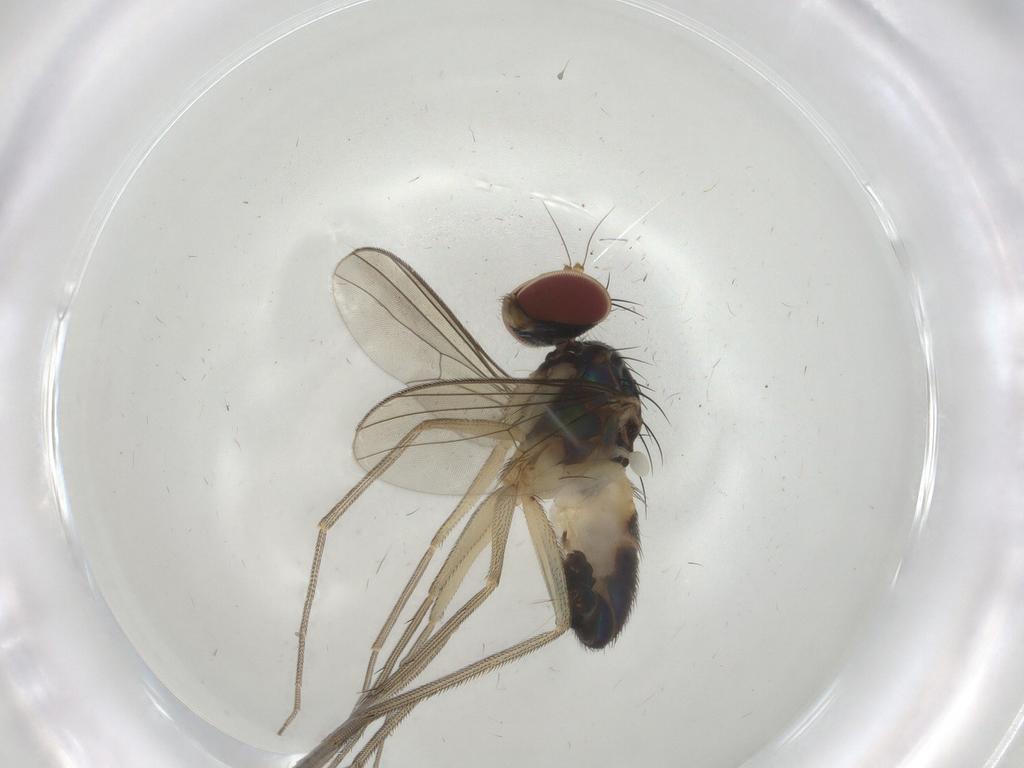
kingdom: Animalia
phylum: Arthropoda
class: Insecta
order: Diptera
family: Dolichopodidae
